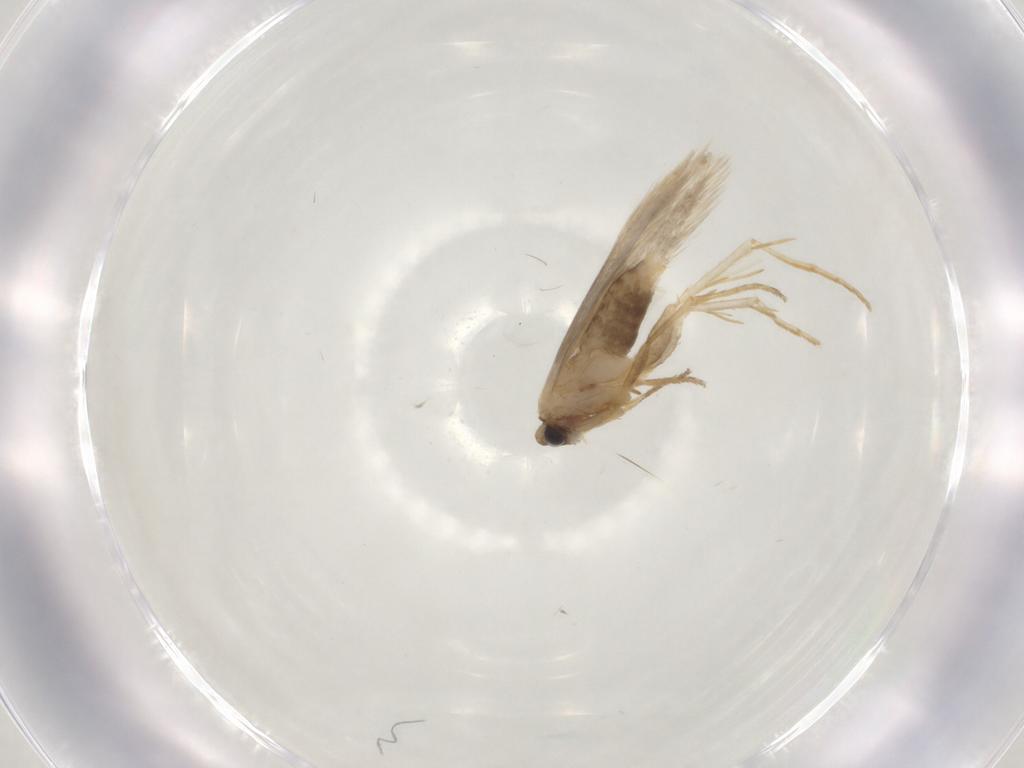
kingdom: Animalia
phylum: Arthropoda
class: Insecta
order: Lepidoptera
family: Tineidae
